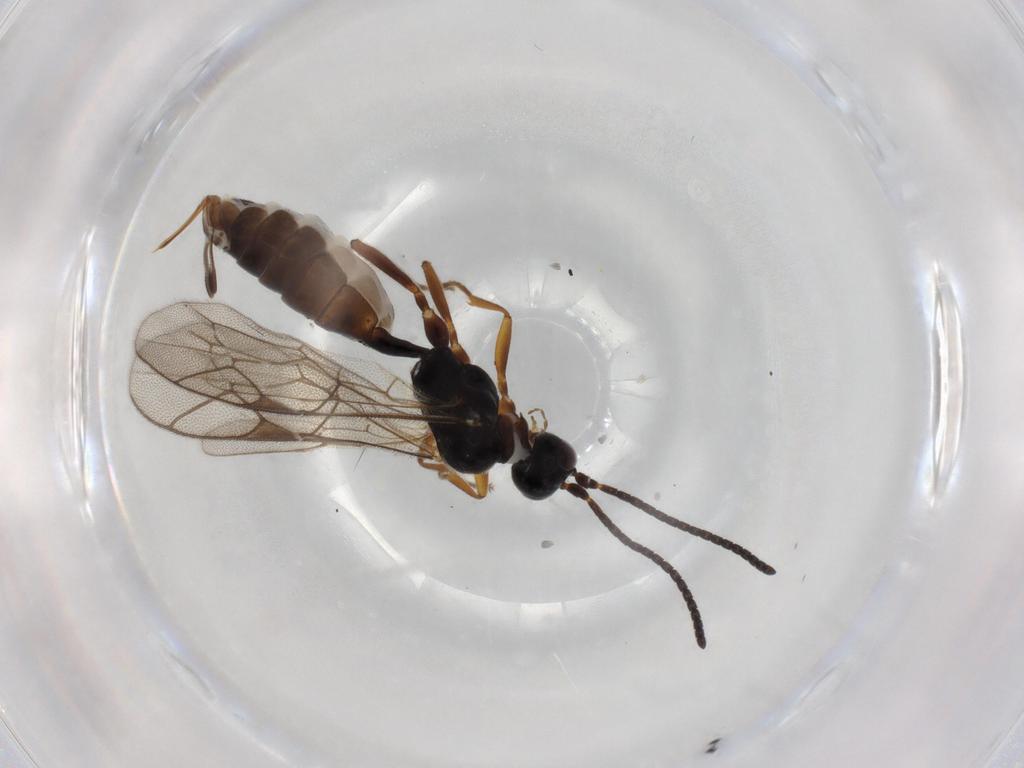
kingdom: Animalia
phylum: Arthropoda
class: Insecta
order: Hymenoptera
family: Ichneumonidae
